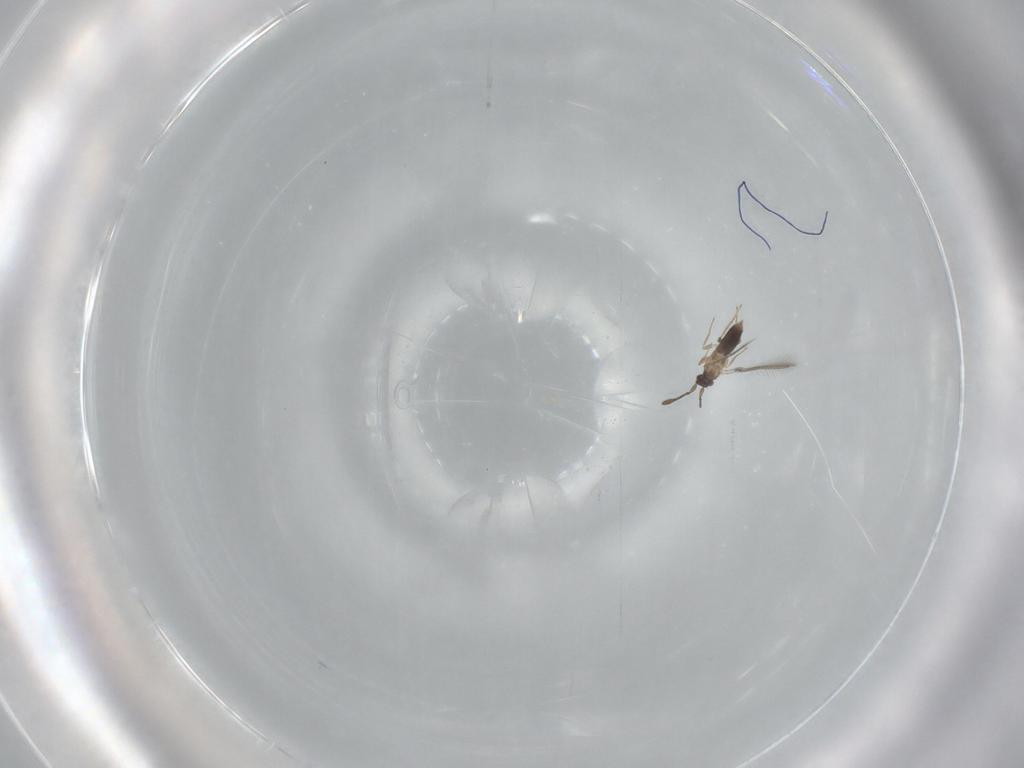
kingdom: Animalia
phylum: Arthropoda
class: Insecta
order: Hymenoptera
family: Mymaridae
